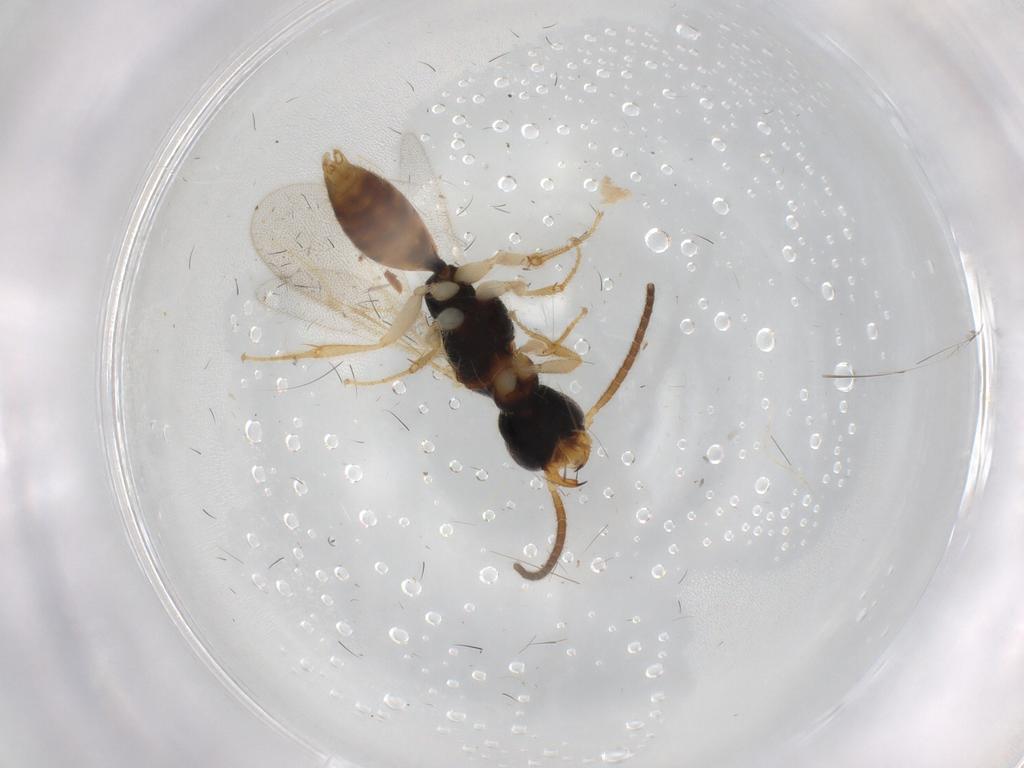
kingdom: Animalia
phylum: Arthropoda
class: Insecta
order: Hymenoptera
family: Bethylidae
